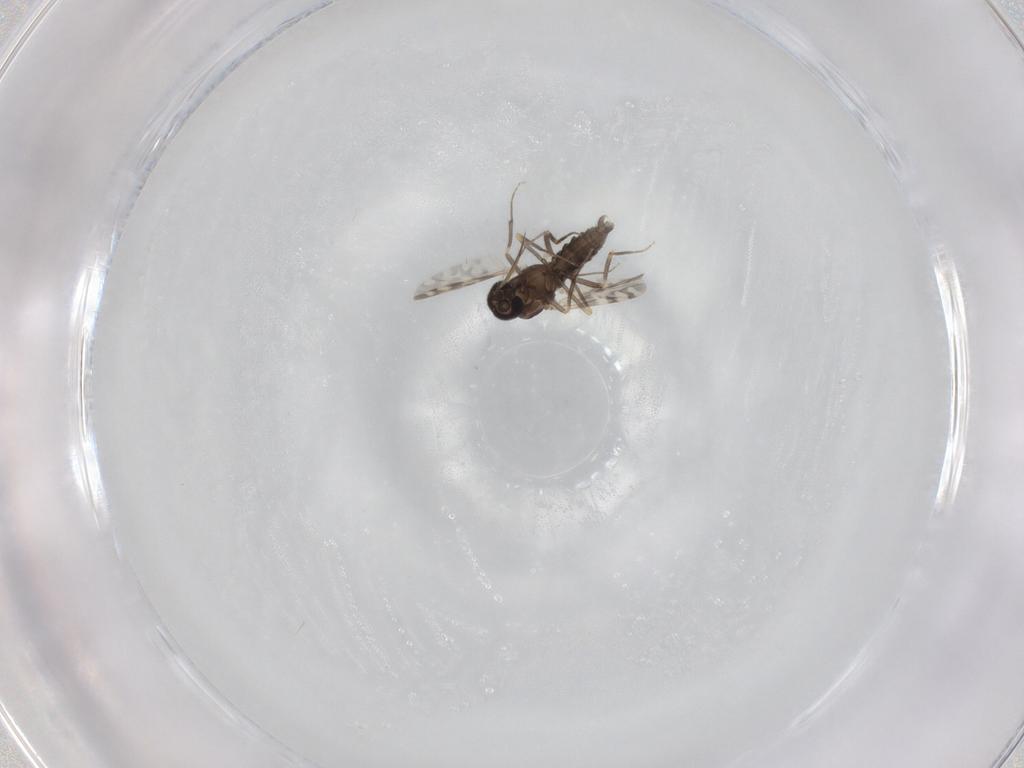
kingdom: Animalia
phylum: Arthropoda
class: Insecta
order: Diptera
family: Ceratopogonidae
